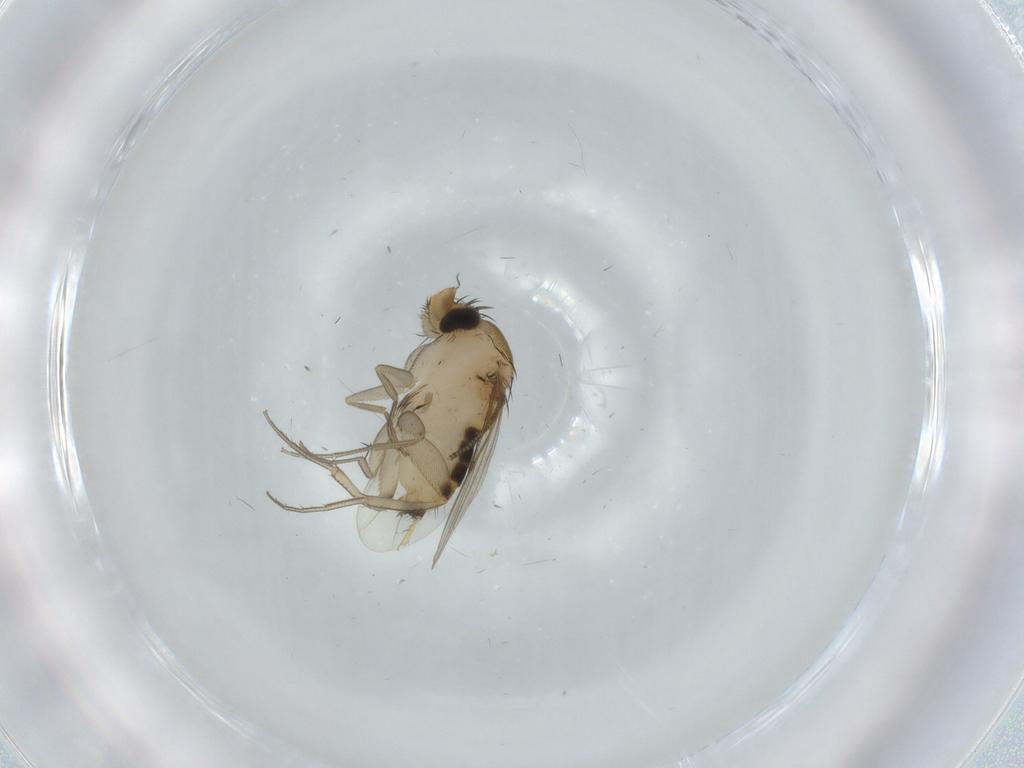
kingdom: Animalia
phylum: Arthropoda
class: Insecta
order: Diptera
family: Phoridae
